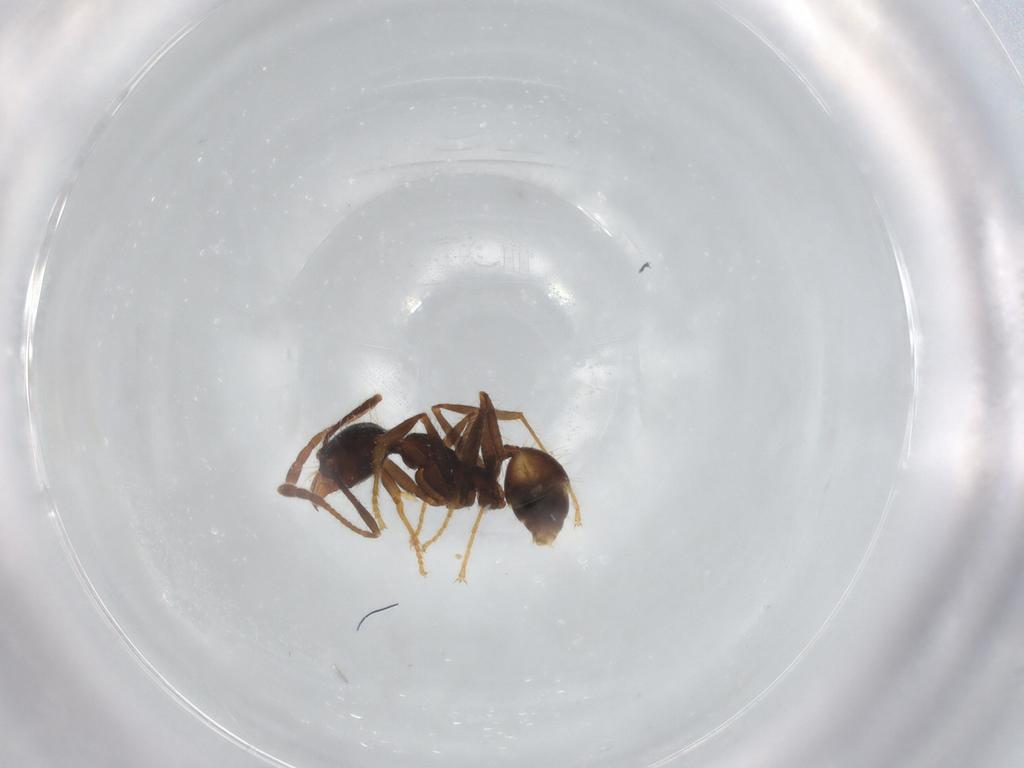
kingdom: Animalia
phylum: Arthropoda
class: Insecta
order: Hymenoptera
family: Formicidae
